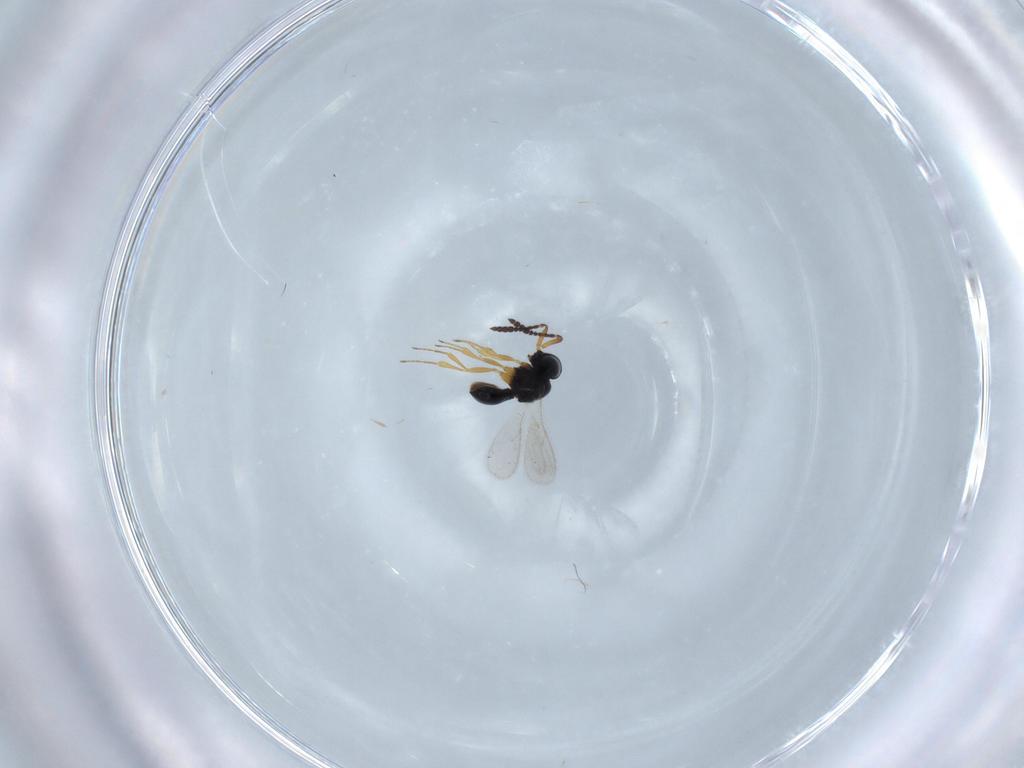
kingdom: Animalia
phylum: Arthropoda
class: Insecta
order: Hymenoptera
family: Scelionidae
